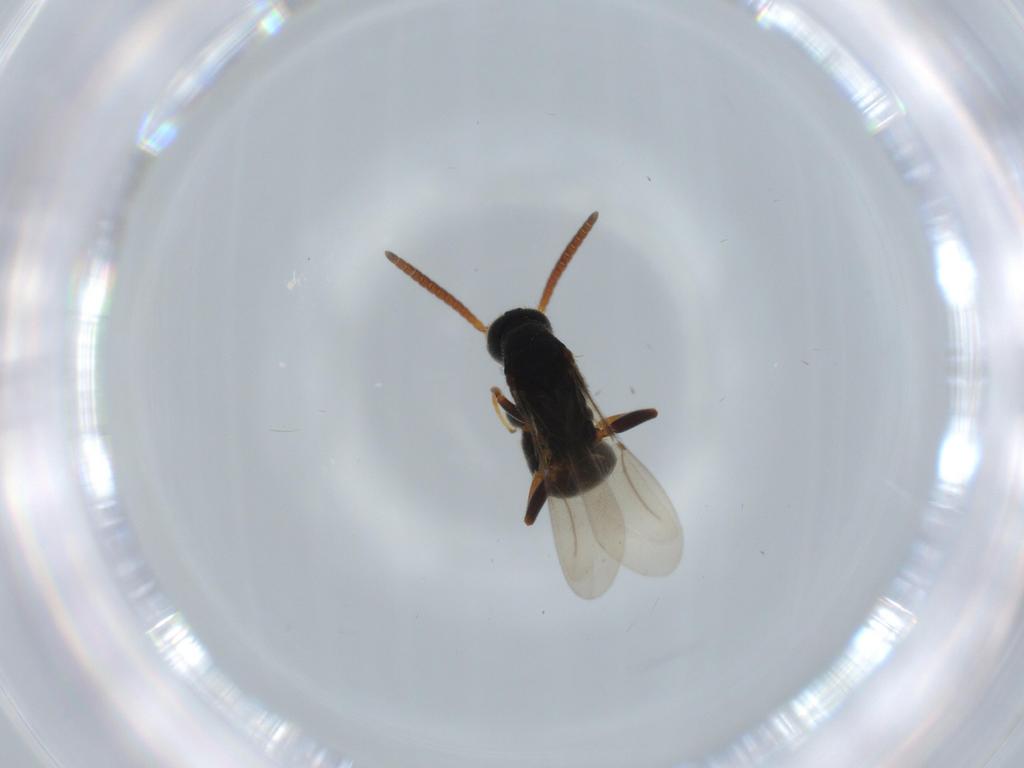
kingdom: Animalia
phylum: Arthropoda
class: Insecta
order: Hymenoptera
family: Bethylidae
